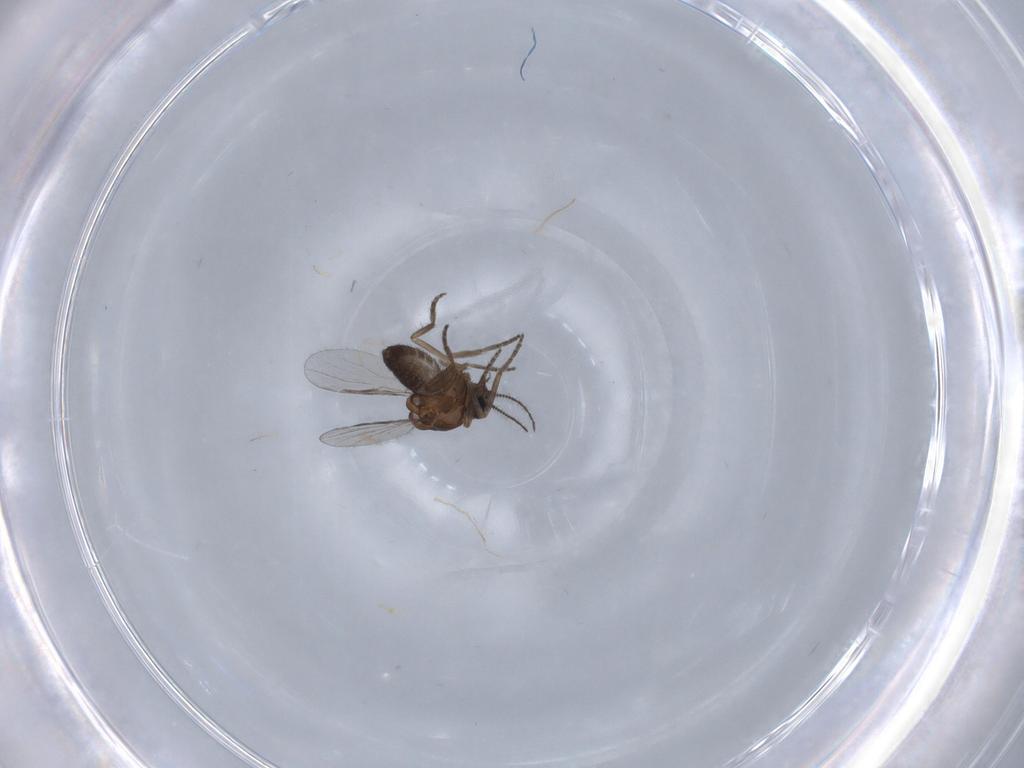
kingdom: Animalia
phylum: Arthropoda
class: Insecta
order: Diptera
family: Ceratopogonidae
